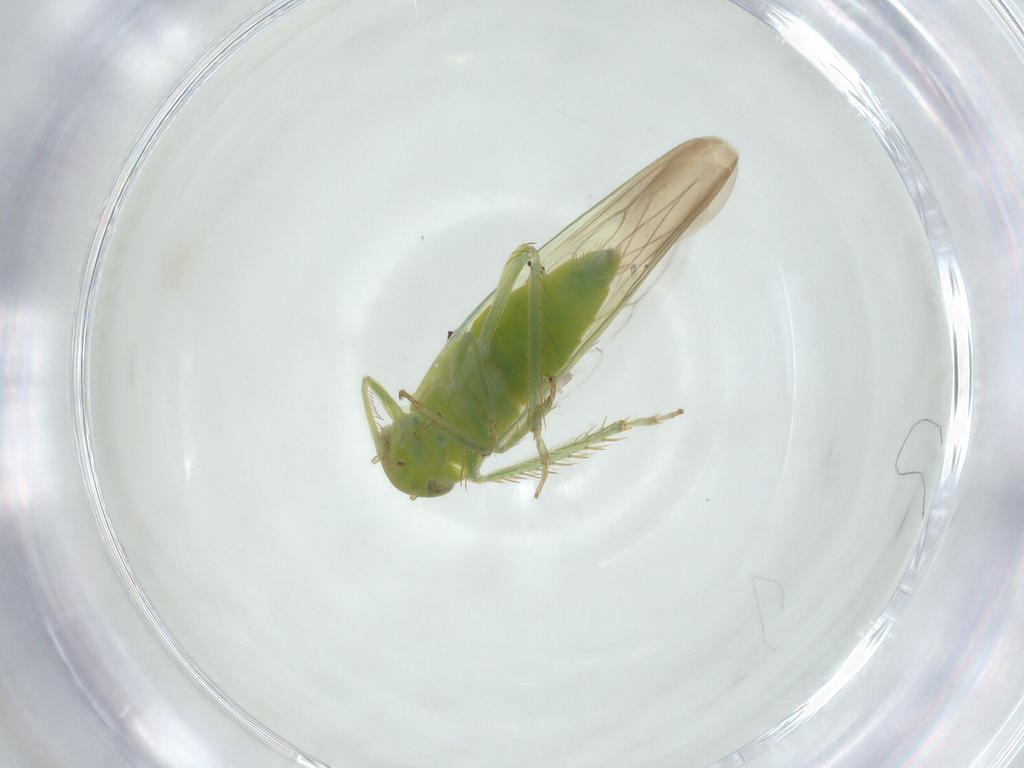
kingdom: Animalia
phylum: Arthropoda
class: Insecta
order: Hemiptera
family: Cicadellidae
